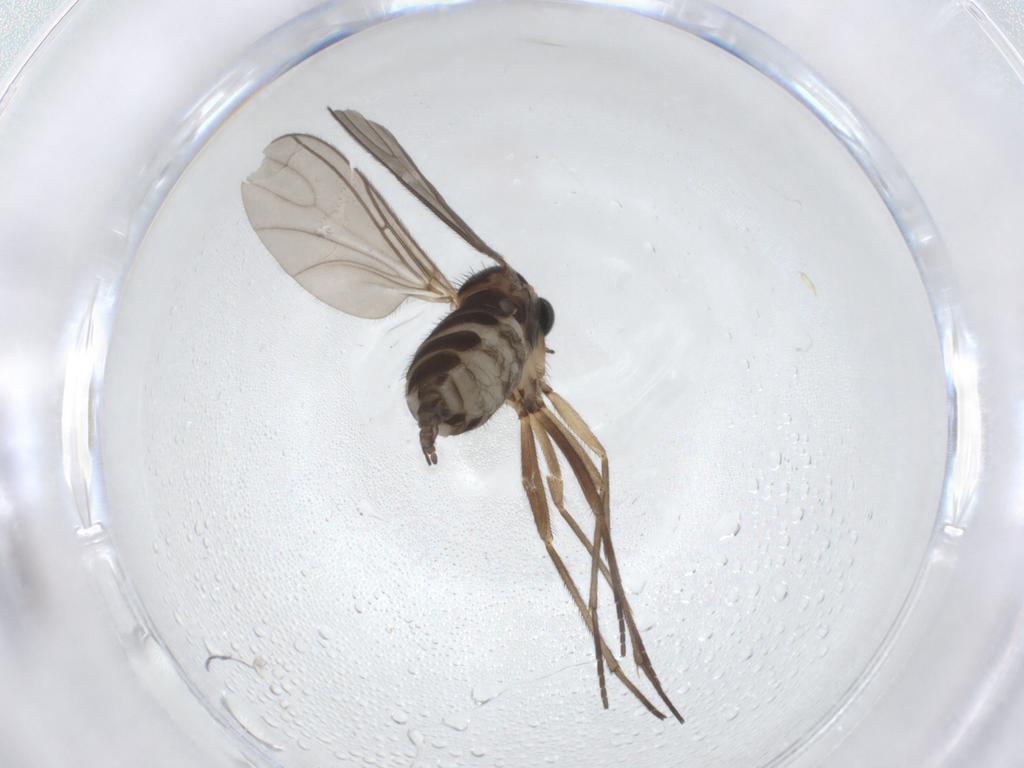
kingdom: Animalia
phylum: Arthropoda
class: Insecta
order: Diptera
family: Sciaridae
